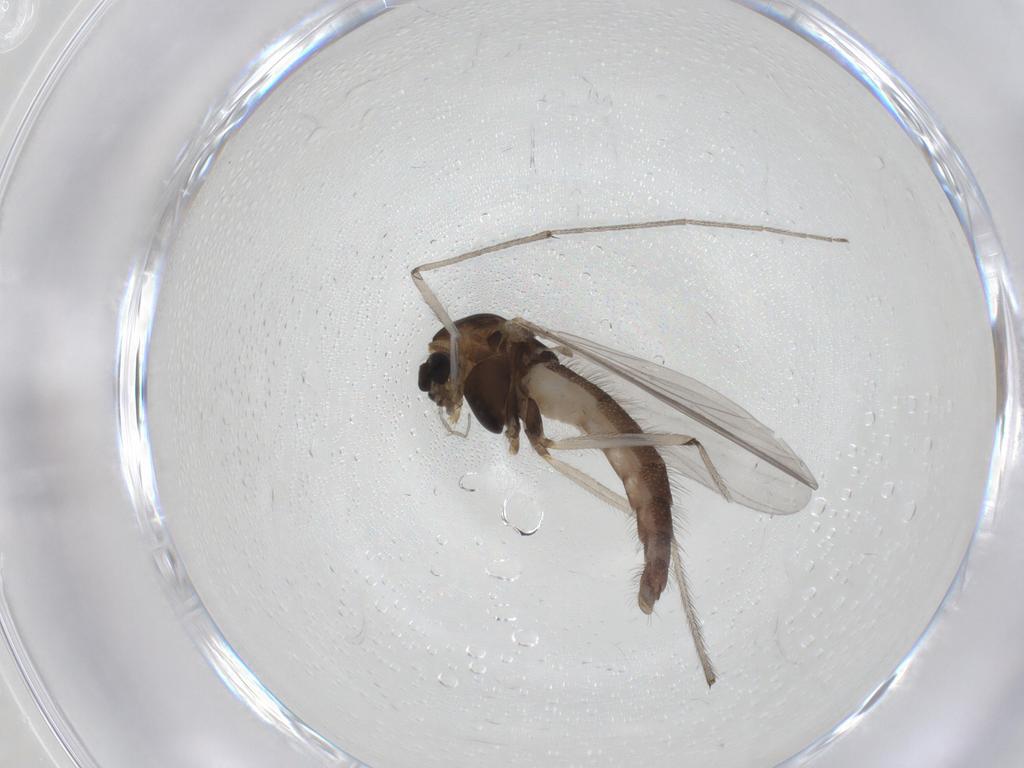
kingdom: Animalia
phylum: Arthropoda
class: Insecta
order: Diptera
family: Chironomidae
